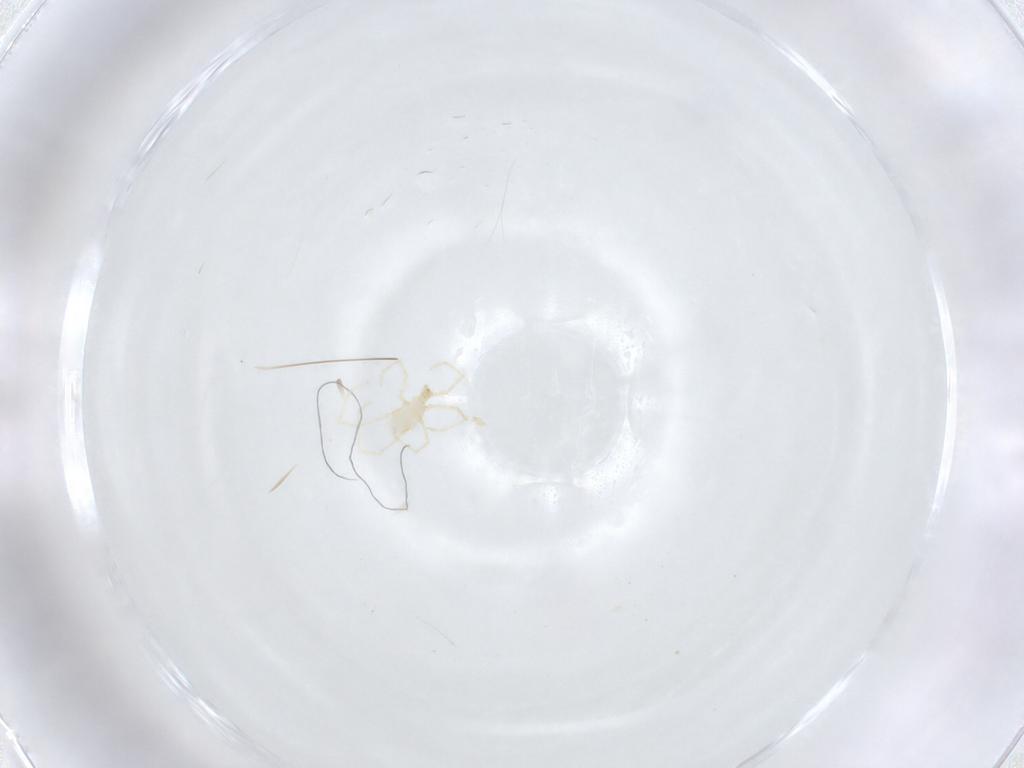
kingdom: Animalia
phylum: Arthropoda
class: Arachnida
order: Trombidiformes
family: Erythraeidae
